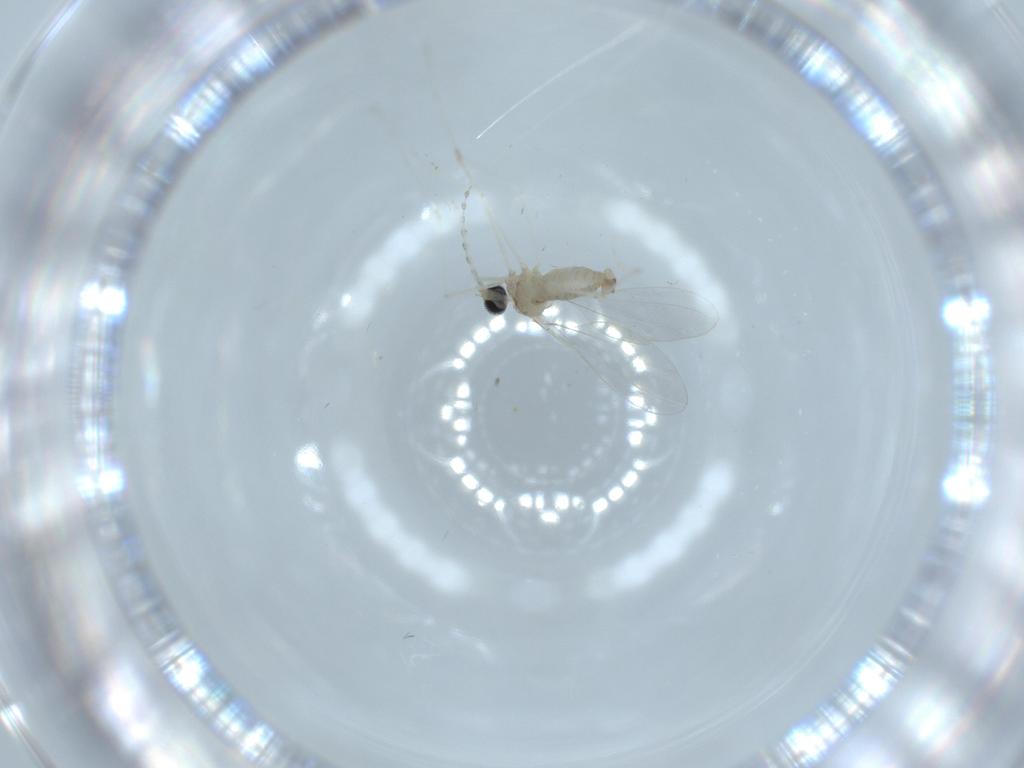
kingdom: Animalia
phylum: Arthropoda
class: Insecta
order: Diptera
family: Cecidomyiidae
